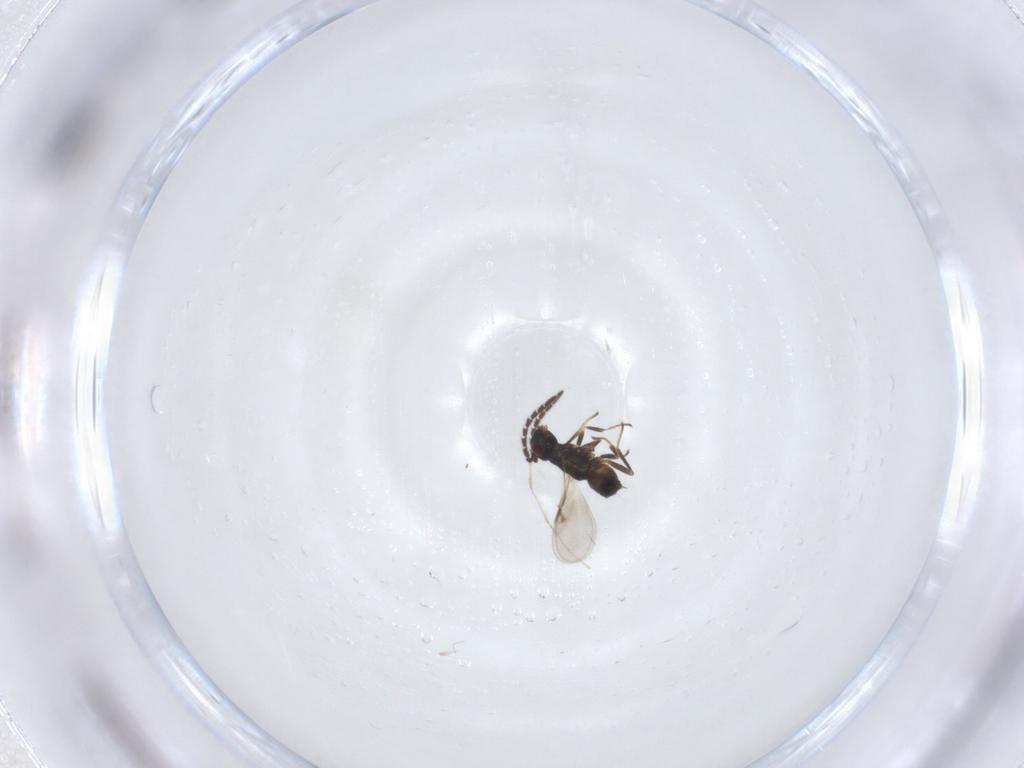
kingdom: Animalia
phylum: Arthropoda
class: Insecta
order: Hymenoptera
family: Encyrtidae
